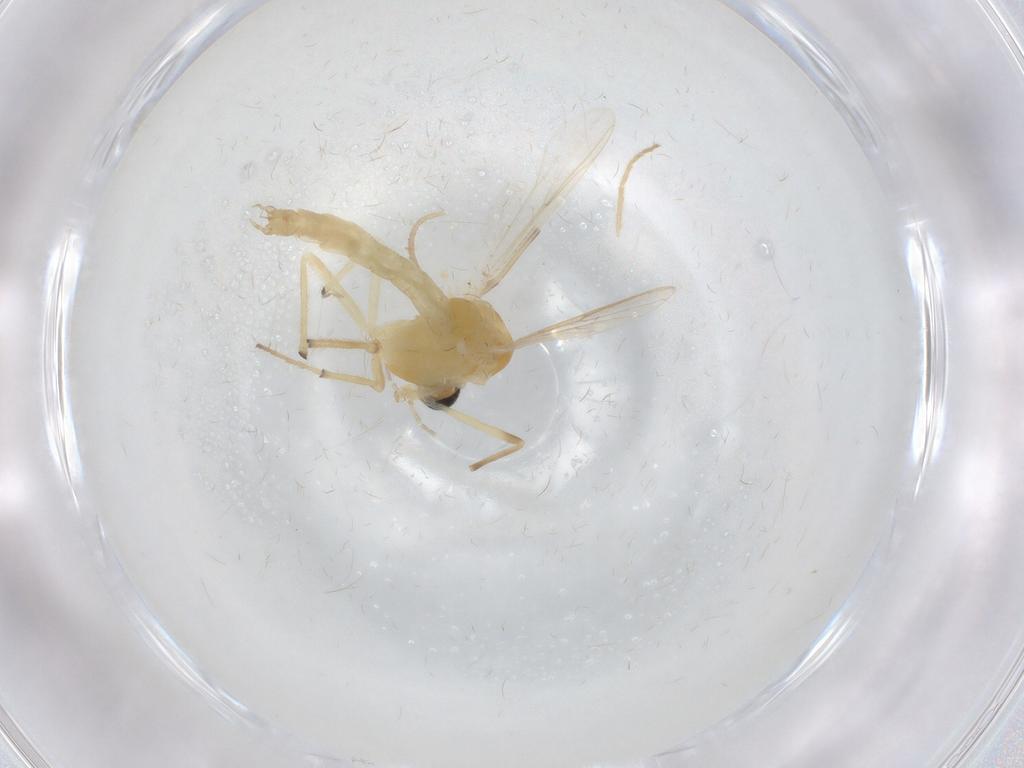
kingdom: Animalia
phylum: Arthropoda
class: Insecta
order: Diptera
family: Chironomidae
